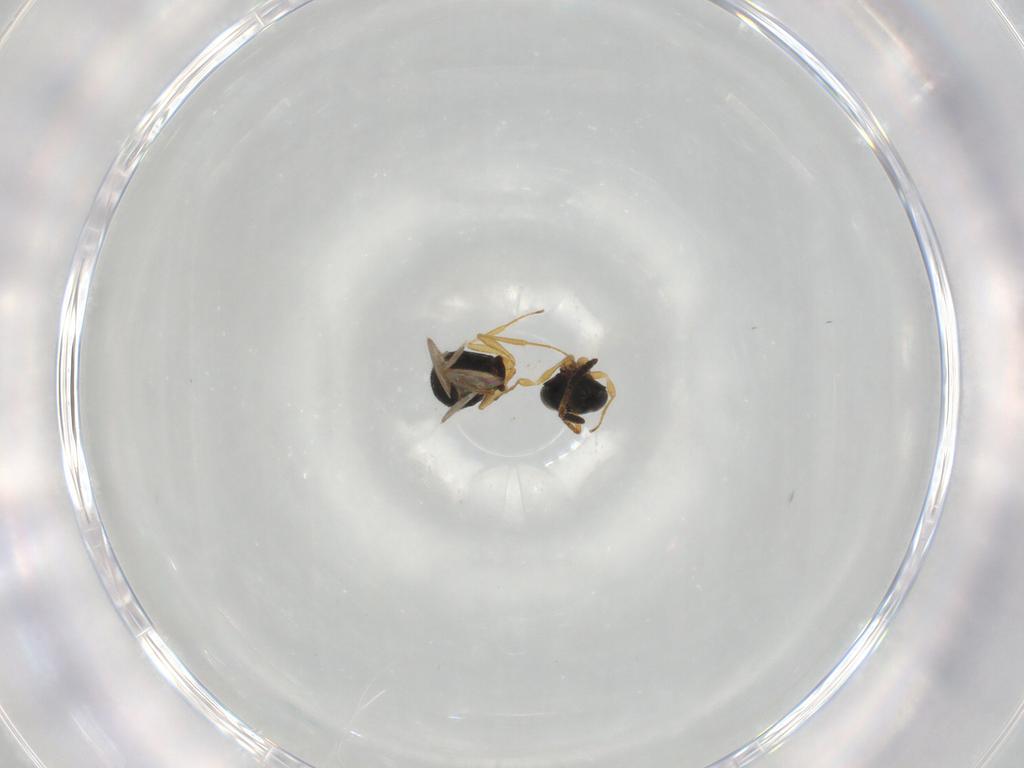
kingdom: Animalia
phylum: Arthropoda
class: Insecta
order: Hymenoptera
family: Scelionidae
